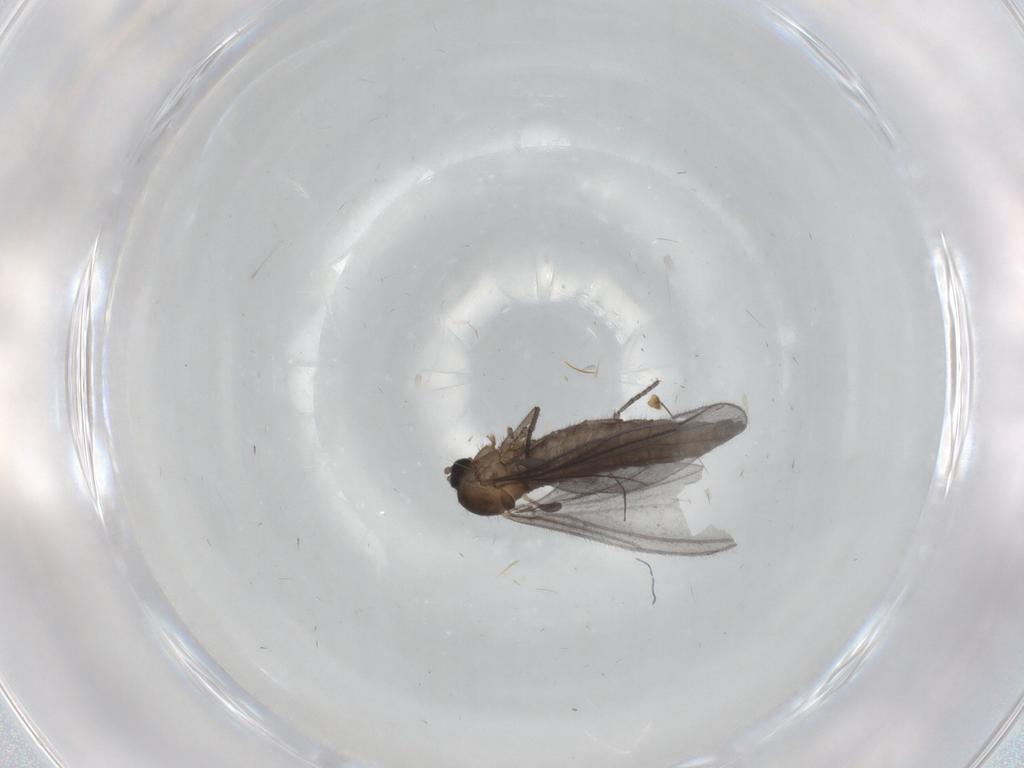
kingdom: Animalia
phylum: Arthropoda
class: Insecta
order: Diptera
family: Sciaridae
